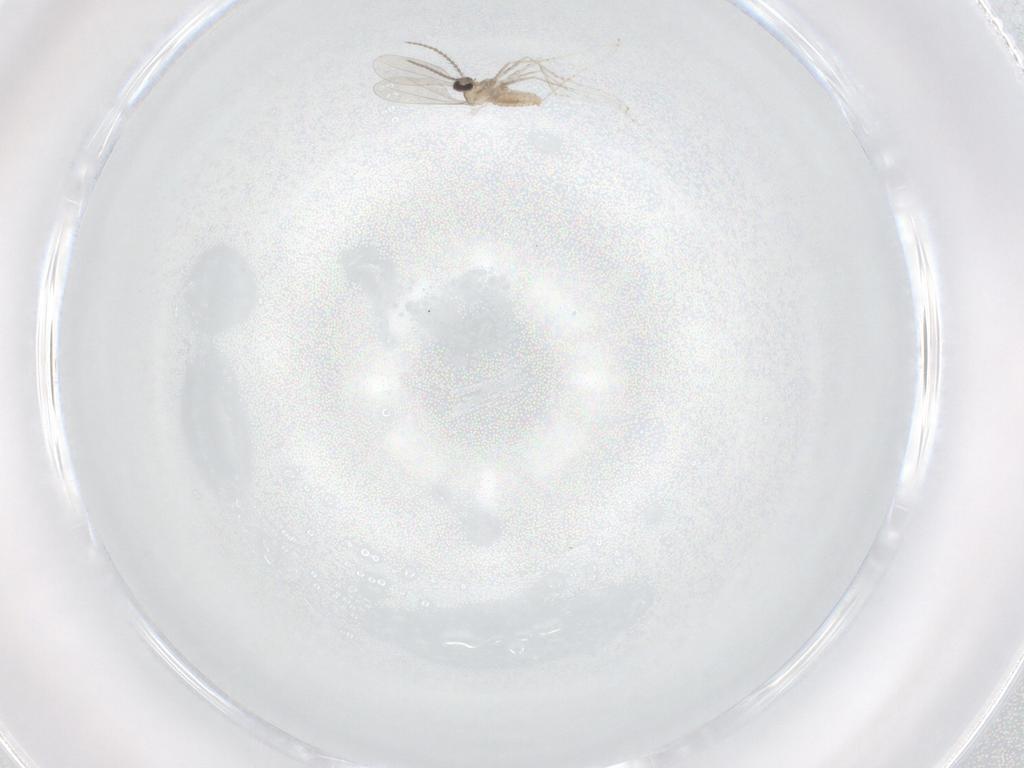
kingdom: Animalia
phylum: Arthropoda
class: Insecta
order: Diptera
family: Cecidomyiidae
